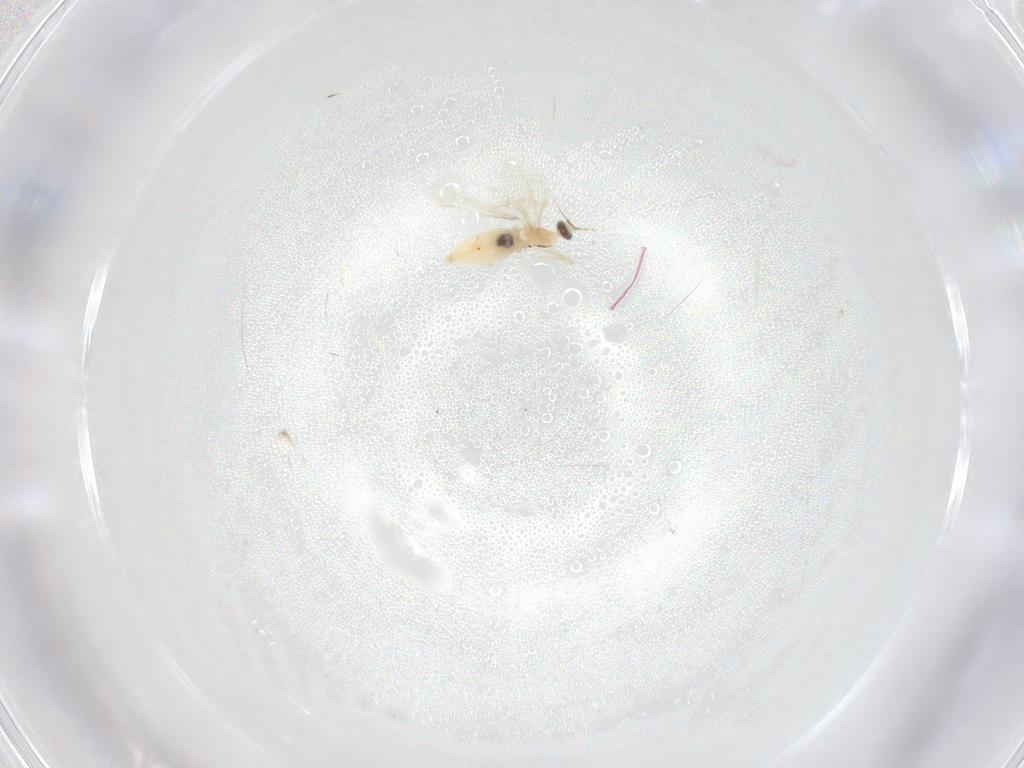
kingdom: Animalia
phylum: Arthropoda
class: Insecta
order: Diptera
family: Cecidomyiidae
